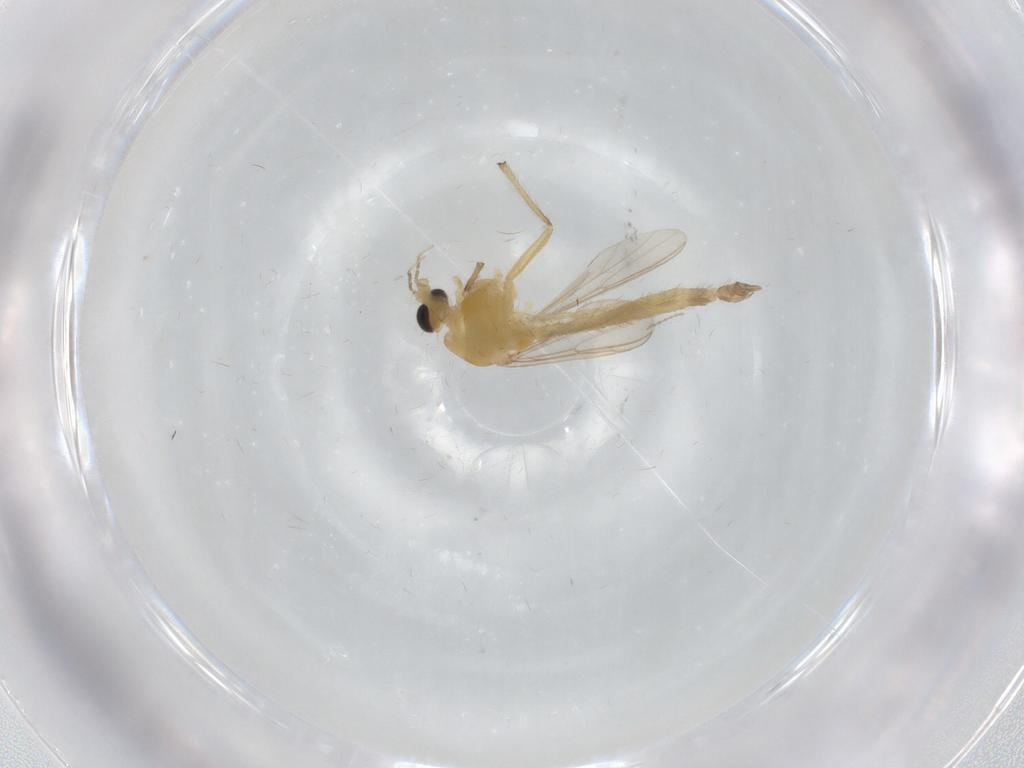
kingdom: Animalia
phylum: Arthropoda
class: Insecta
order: Diptera
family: Chironomidae
